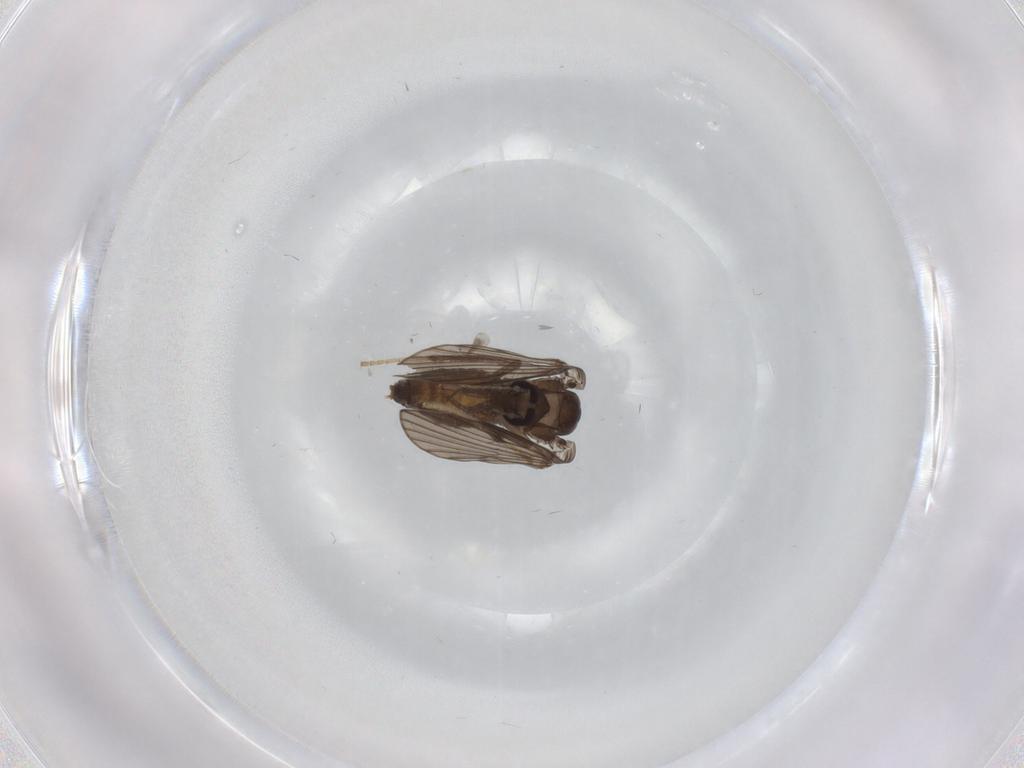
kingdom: Animalia
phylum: Arthropoda
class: Insecta
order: Diptera
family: Psychodidae
